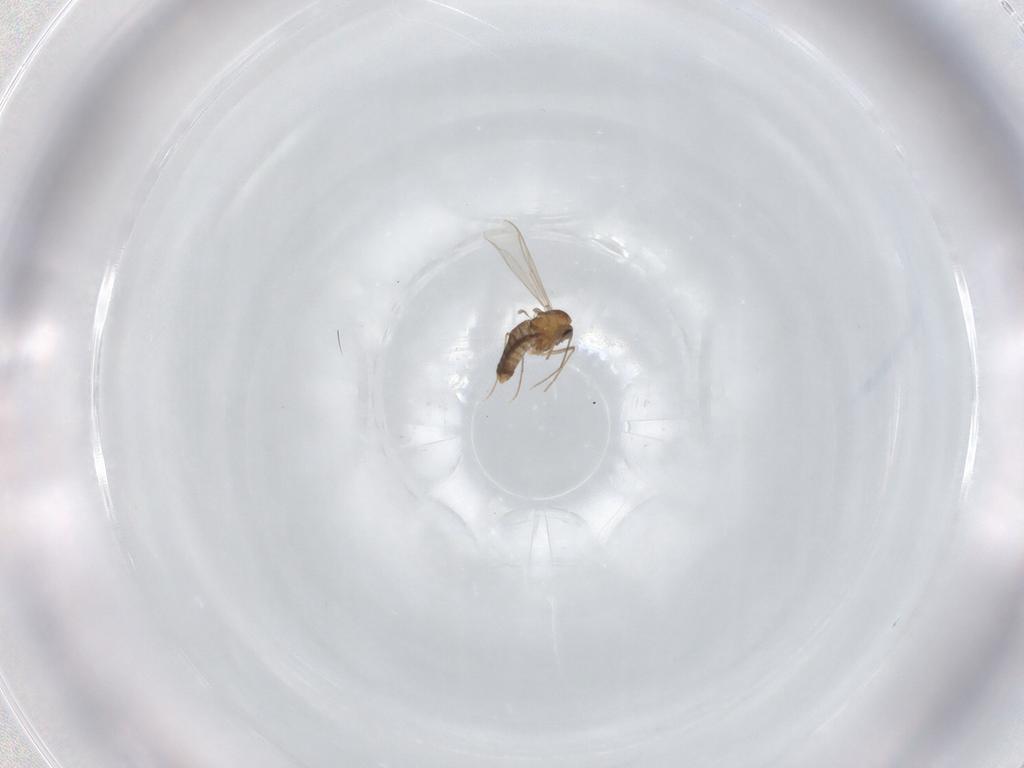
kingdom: Animalia
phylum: Arthropoda
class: Insecta
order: Diptera
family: Chironomidae
